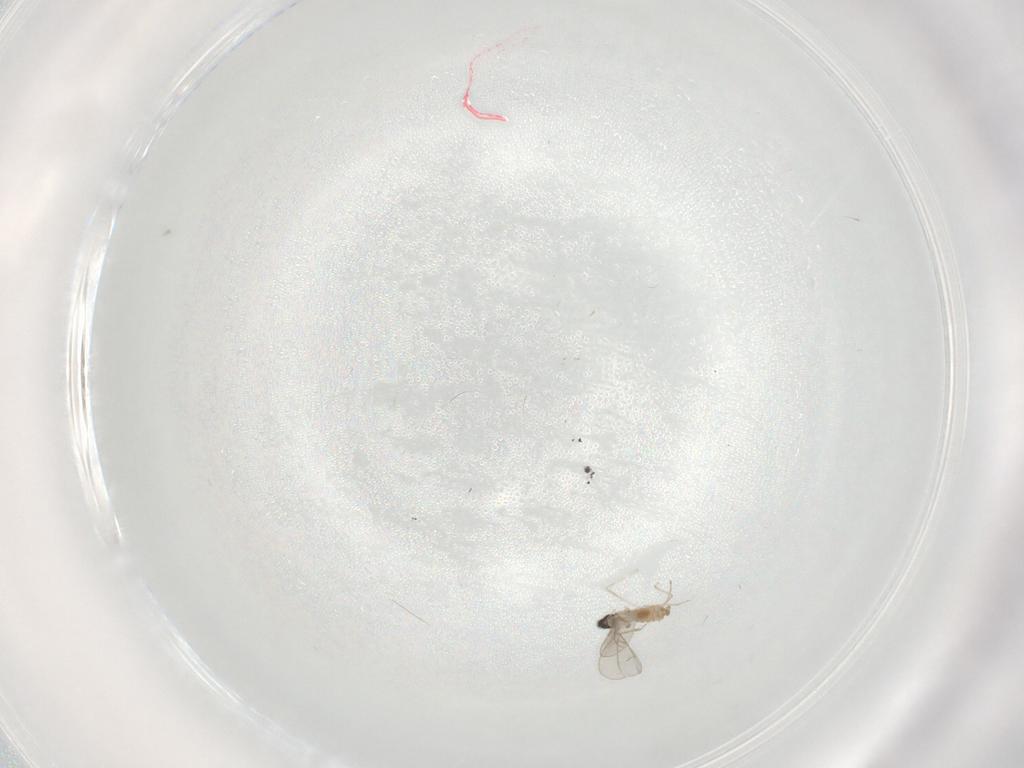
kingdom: Animalia
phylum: Arthropoda
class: Insecta
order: Diptera
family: Cecidomyiidae
